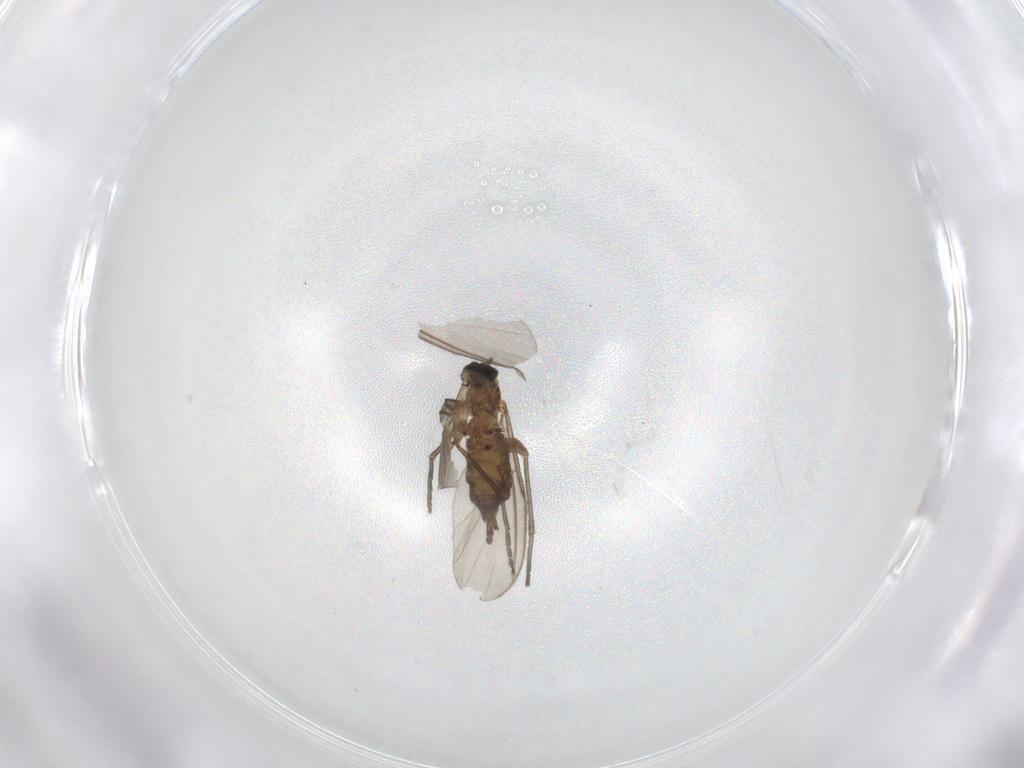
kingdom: Animalia
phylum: Arthropoda
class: Insecta
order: Diptera
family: Sciaridae
